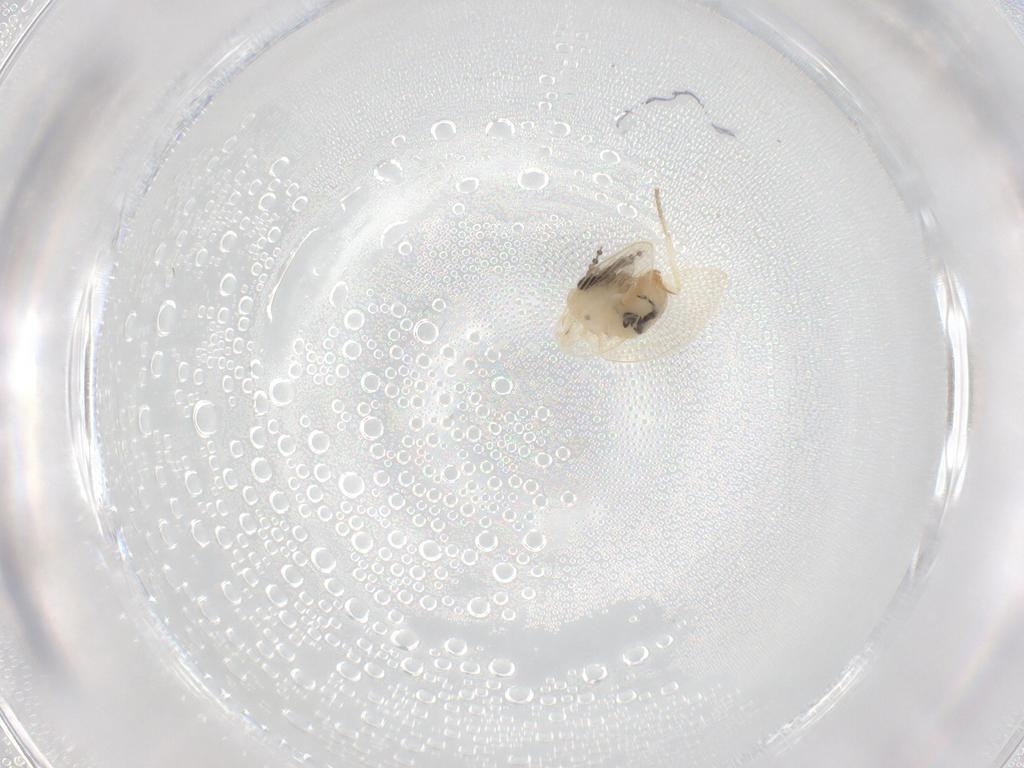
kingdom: Animalia
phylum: Arthropoda
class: Insecta
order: Diptera
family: Psychodidae
